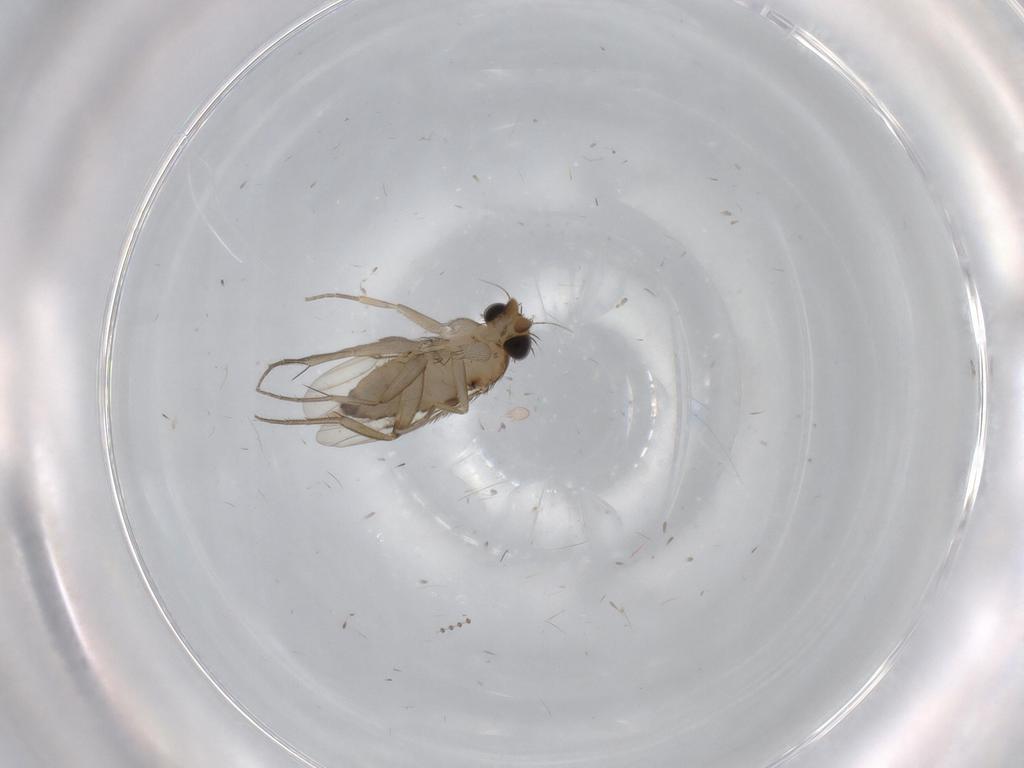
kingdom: Animalia
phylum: Arthropoda
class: Insecta
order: Diptera
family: Phoridae
